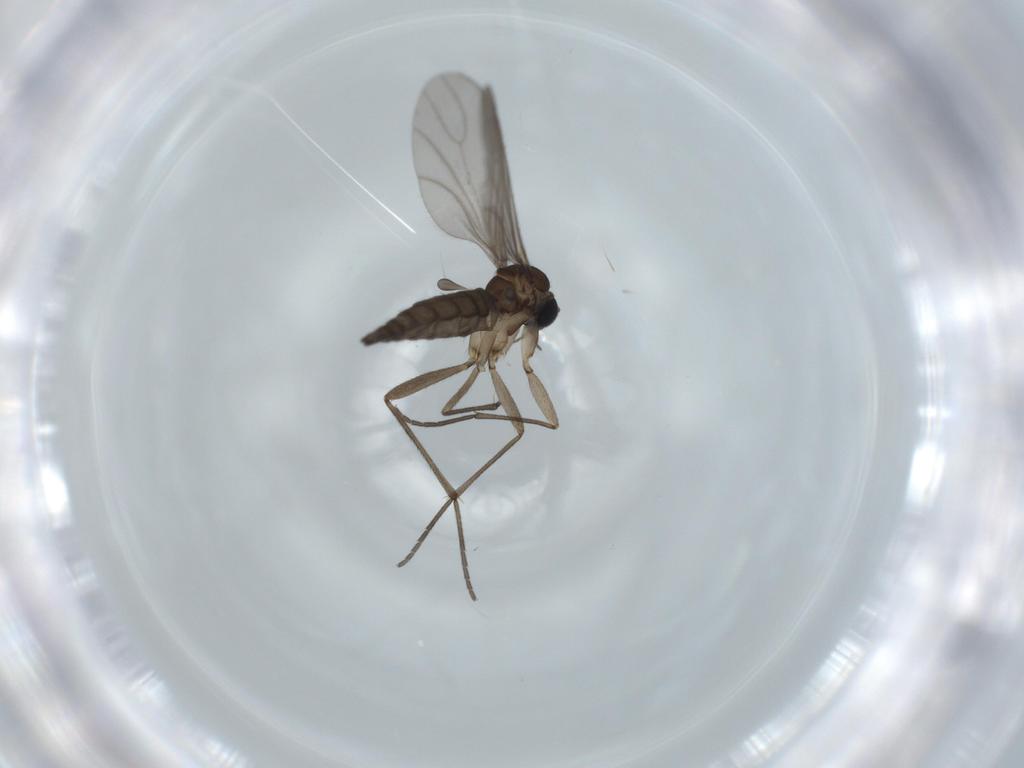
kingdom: Animalia
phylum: Arthropoda
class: Insecta
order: Diptera
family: Sciaridae
